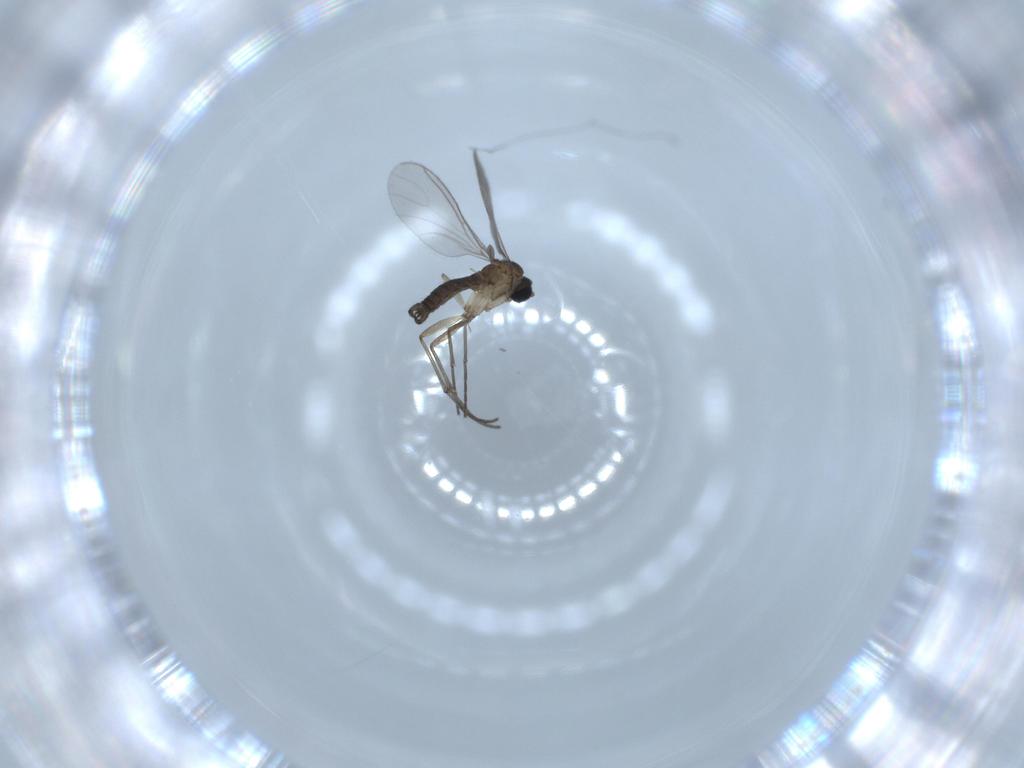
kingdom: Animalia
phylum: Arthropoda
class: Insecta
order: Diptera
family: Sciaridae
